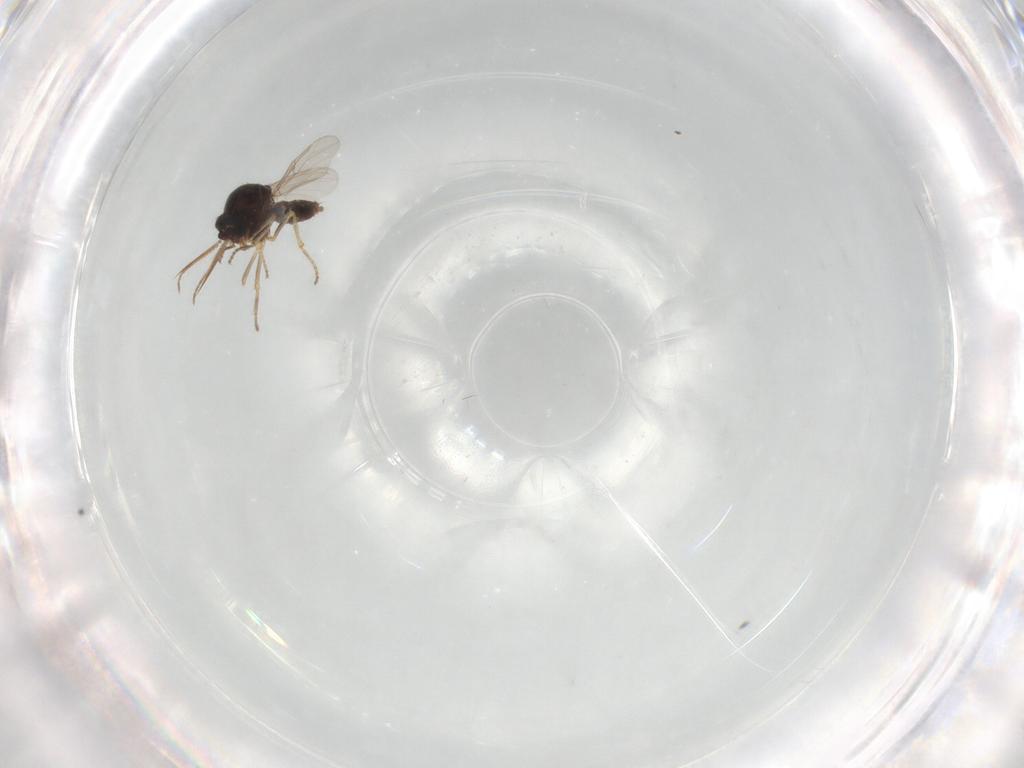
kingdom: Animalia
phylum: Arthropoda
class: Insecta
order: Diptera
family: Ceratopogonidae
